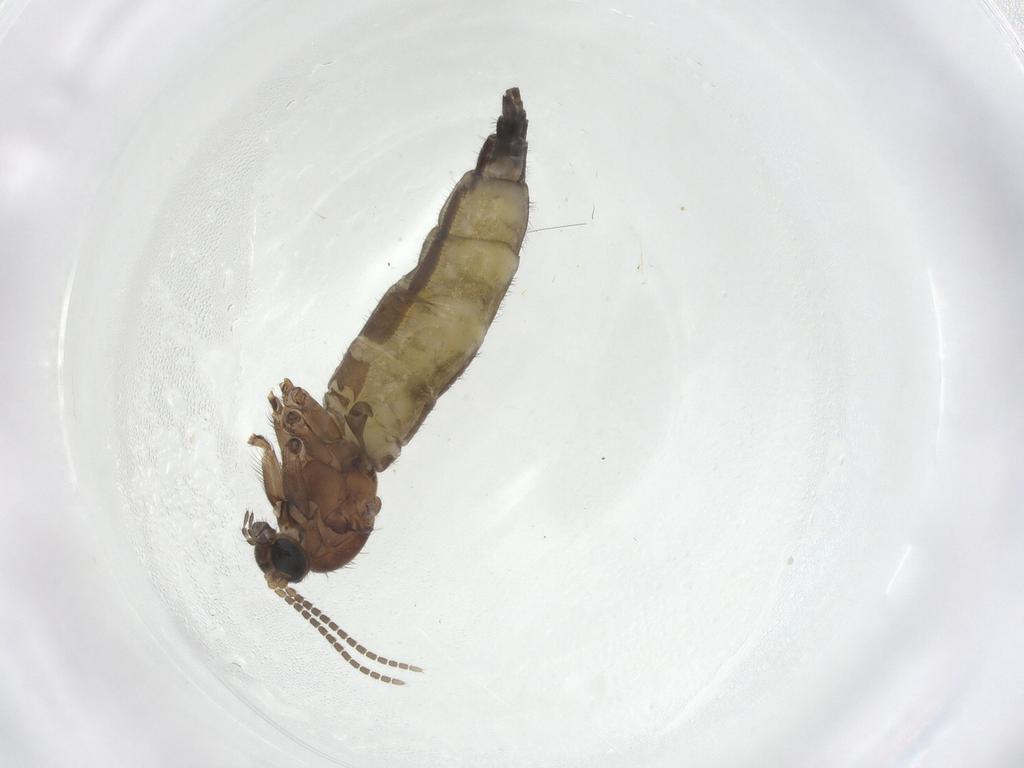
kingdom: Animalia
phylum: Arthropoda
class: Insecta
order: Diptera
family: Sciaridae
